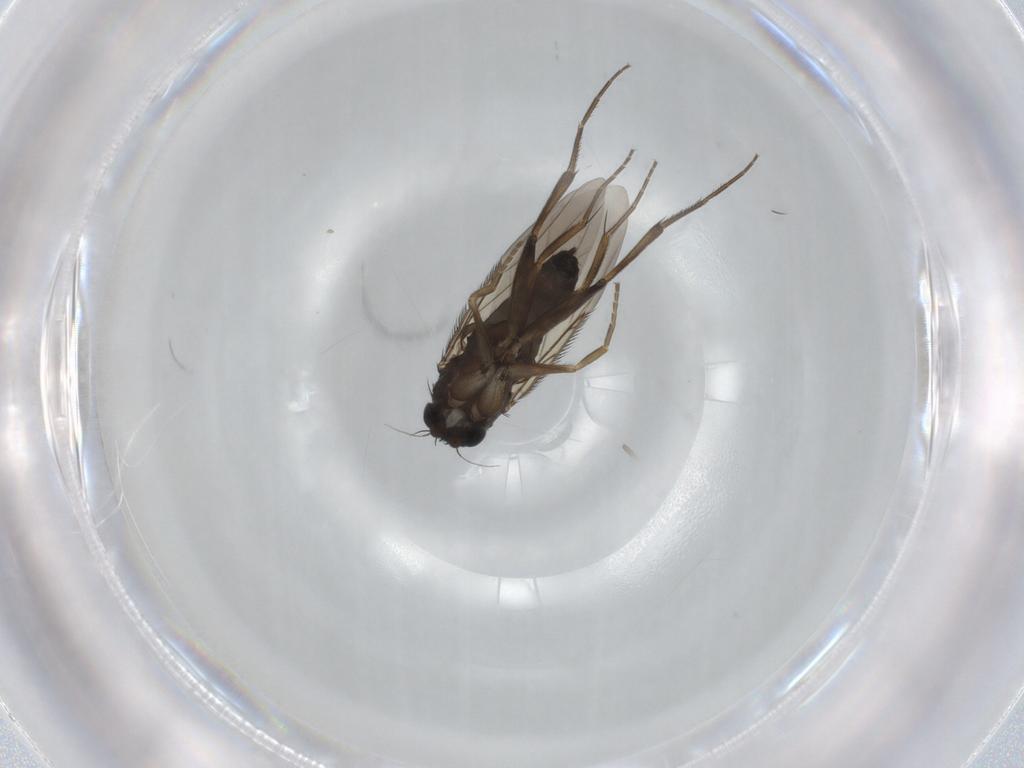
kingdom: Animalia
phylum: Arthropoda
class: Insecta
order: Diptera
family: Phoridae
